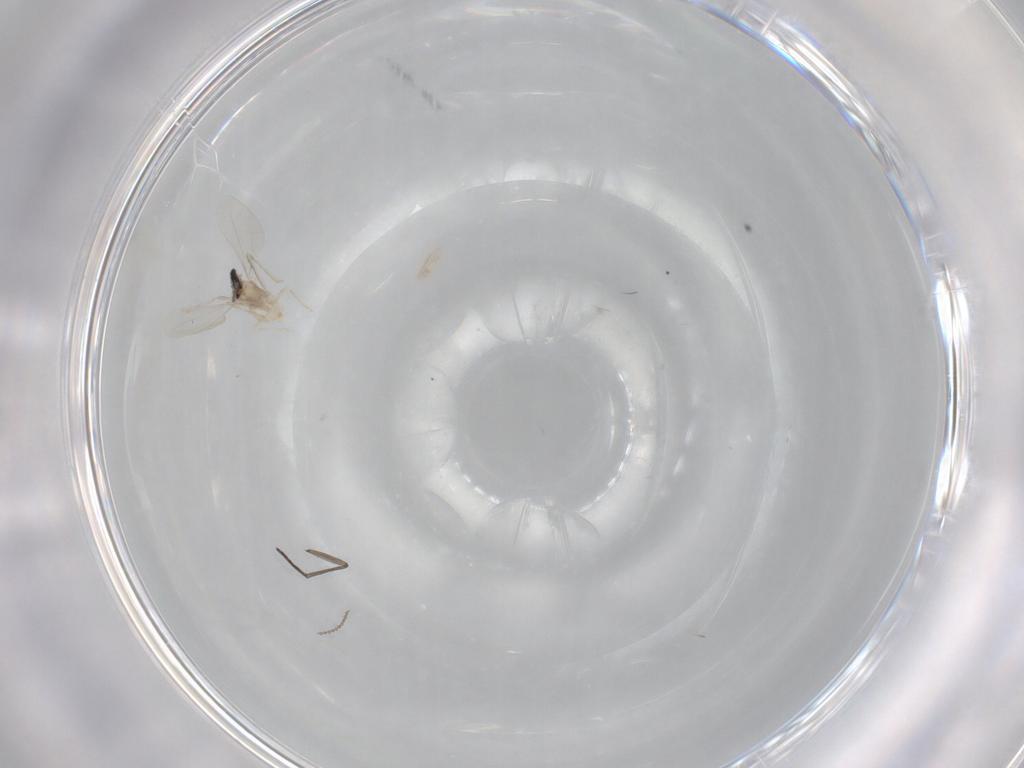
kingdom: Animalia
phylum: Arthropoda
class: Insecta
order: Diptera
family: Cecidomyiidae
